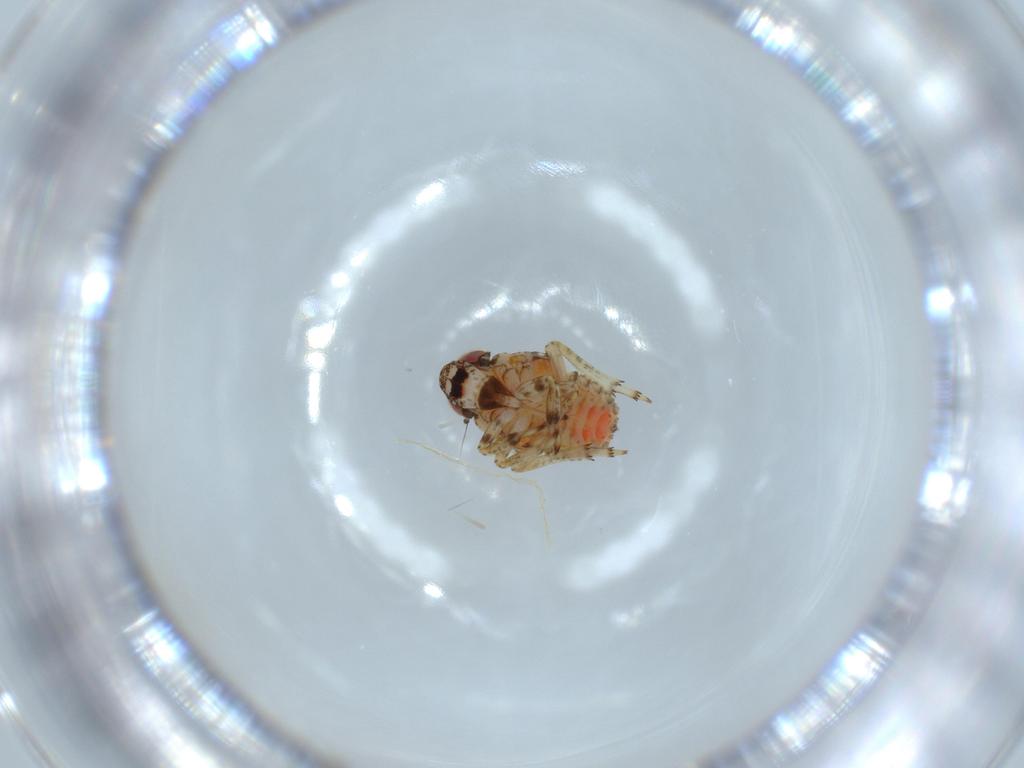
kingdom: Animalia
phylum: Arthropoda
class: Insecta
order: Hemiptera
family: Issidae
